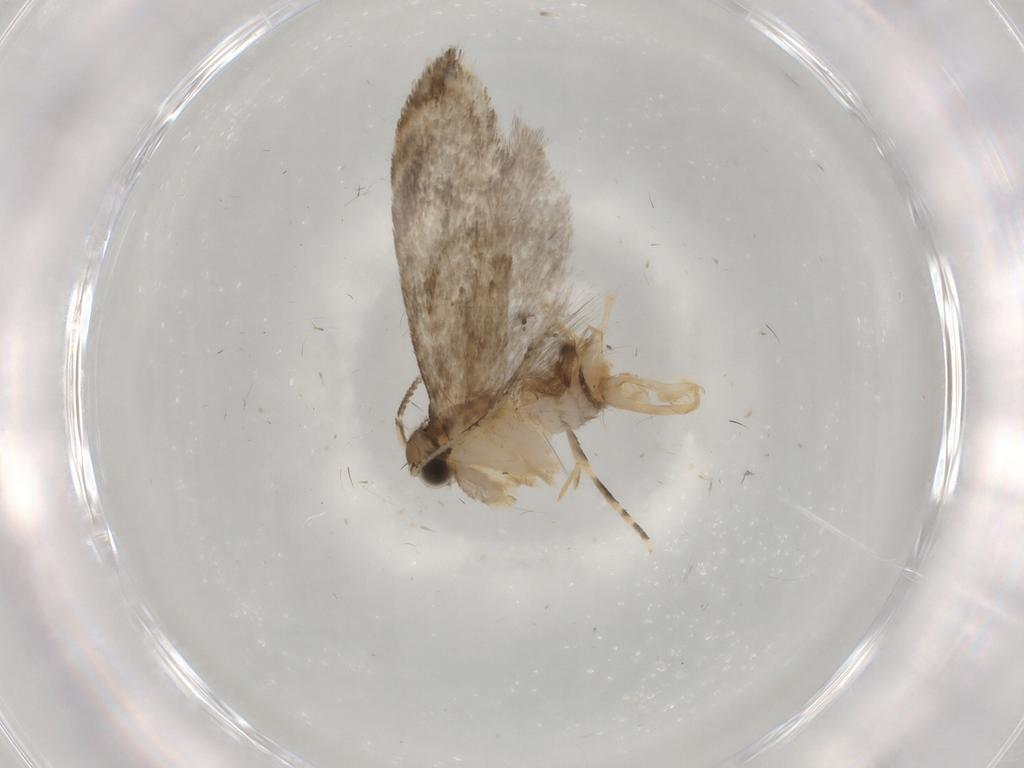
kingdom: Animalia
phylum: Arthropoda
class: Insecta
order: Lepidoptera
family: Tineidae
